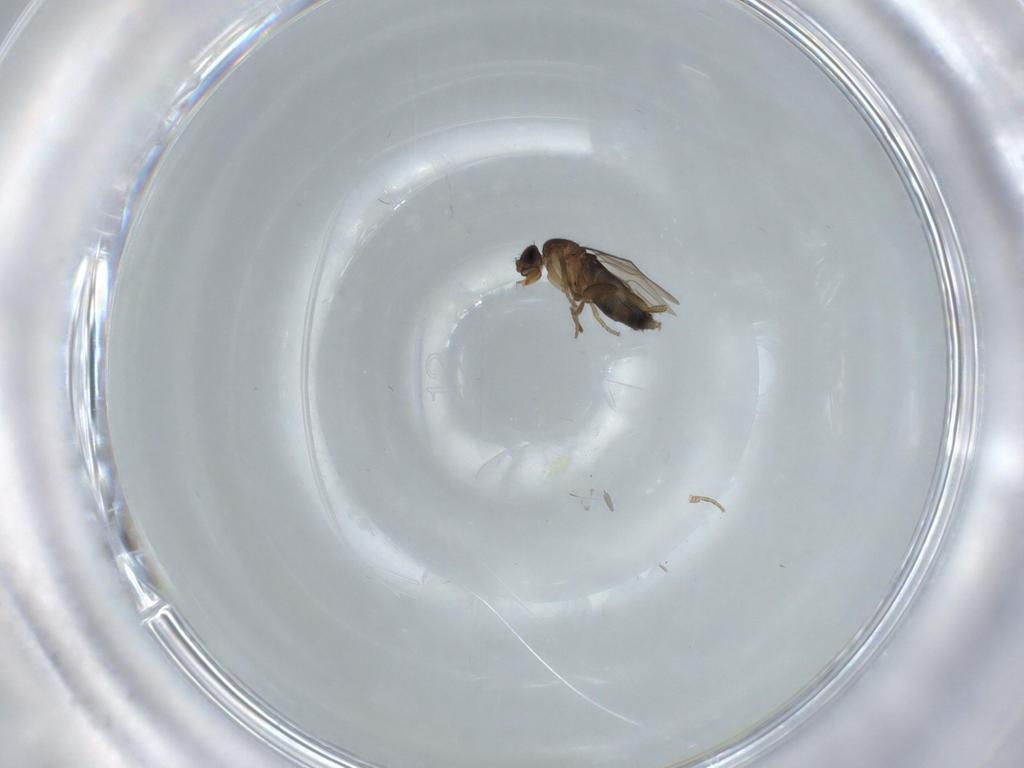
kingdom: Animalia
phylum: Arthropoda
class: Insecta
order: Diptera
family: Phoridae
